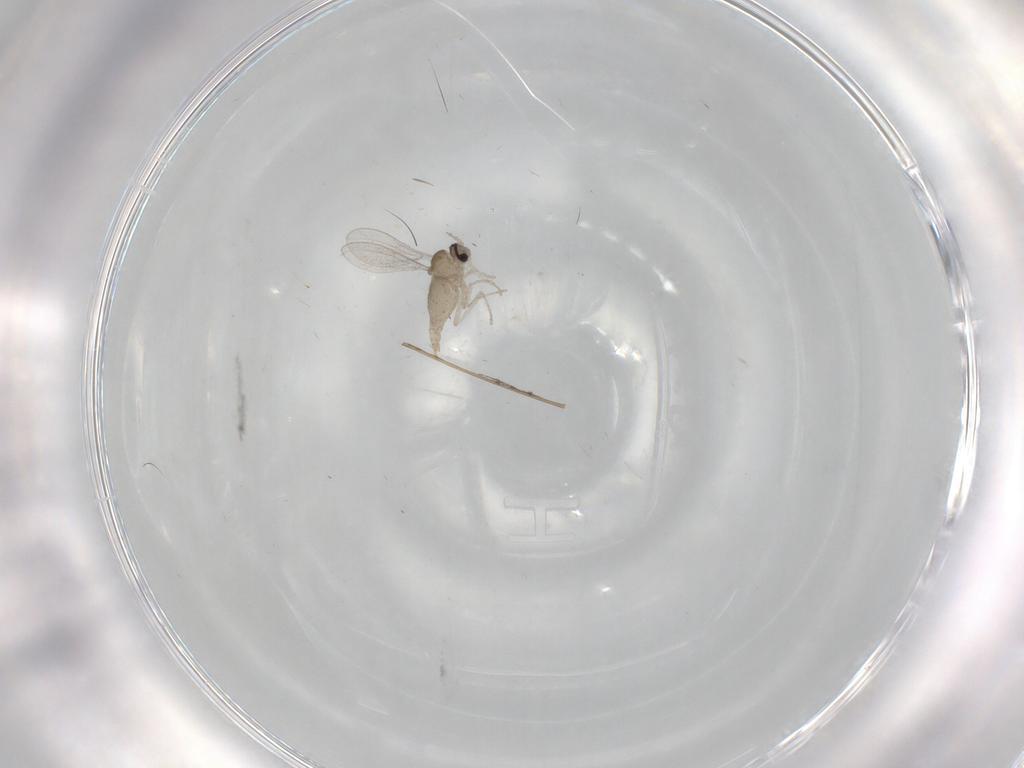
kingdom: Animalia
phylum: Arthropoda
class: Insecta
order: Diptera
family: Cecidomyiidae
